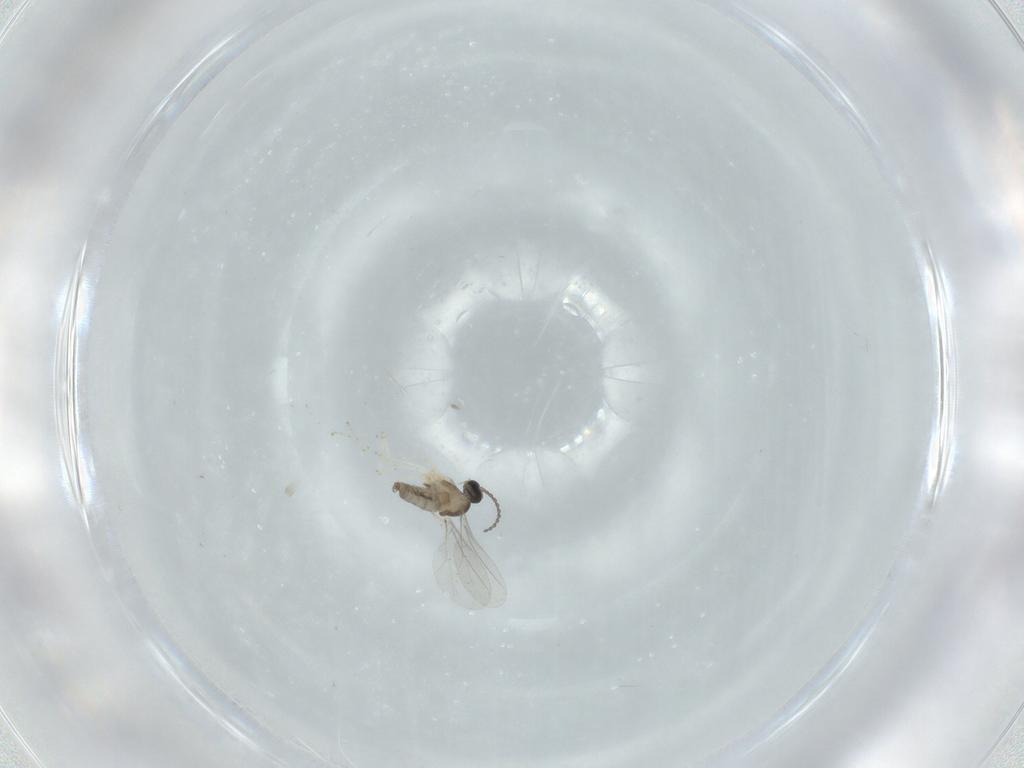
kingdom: Animalia
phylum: Arthropoda
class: Insecta
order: Diptera
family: Cecidomyiidae
